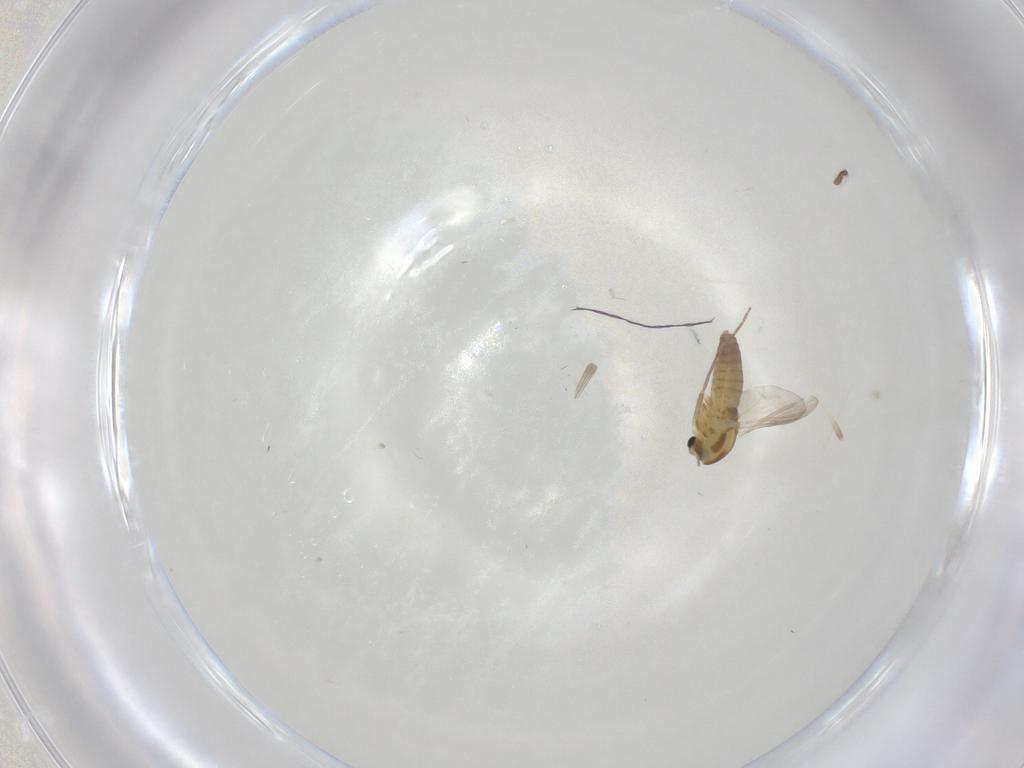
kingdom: Animalia
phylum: Arthropoda
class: Insecta
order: Diptera
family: Chironomidae
